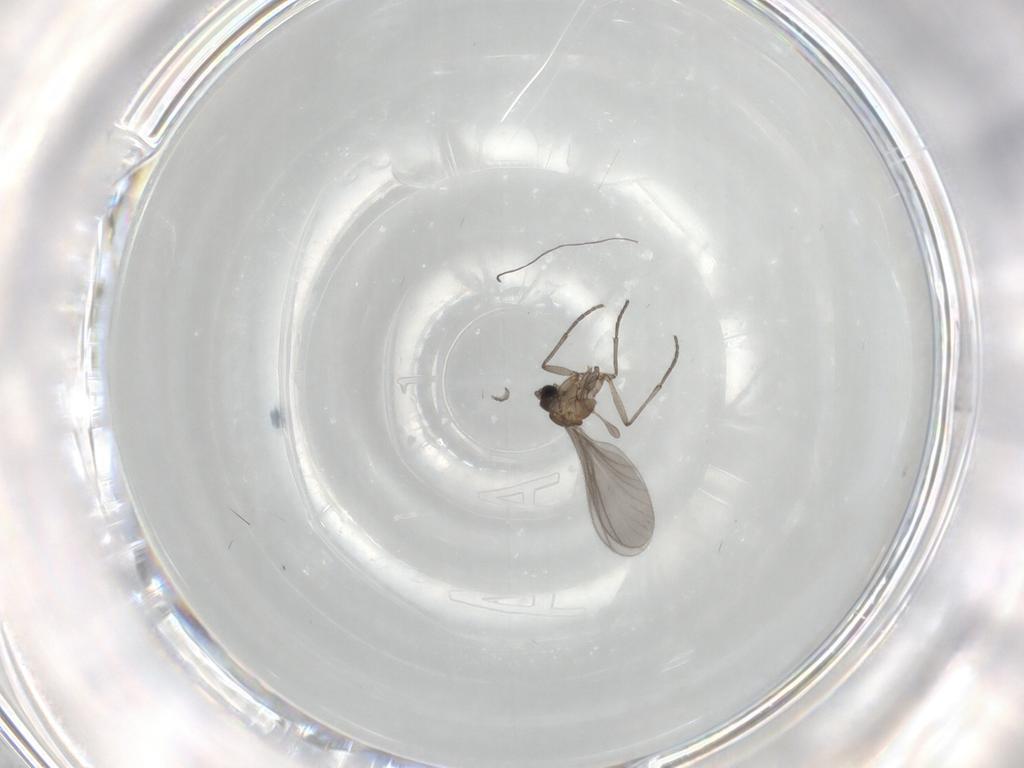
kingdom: Animalia
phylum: Arthropoda
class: Insecta
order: Diptera
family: Sciaridae
